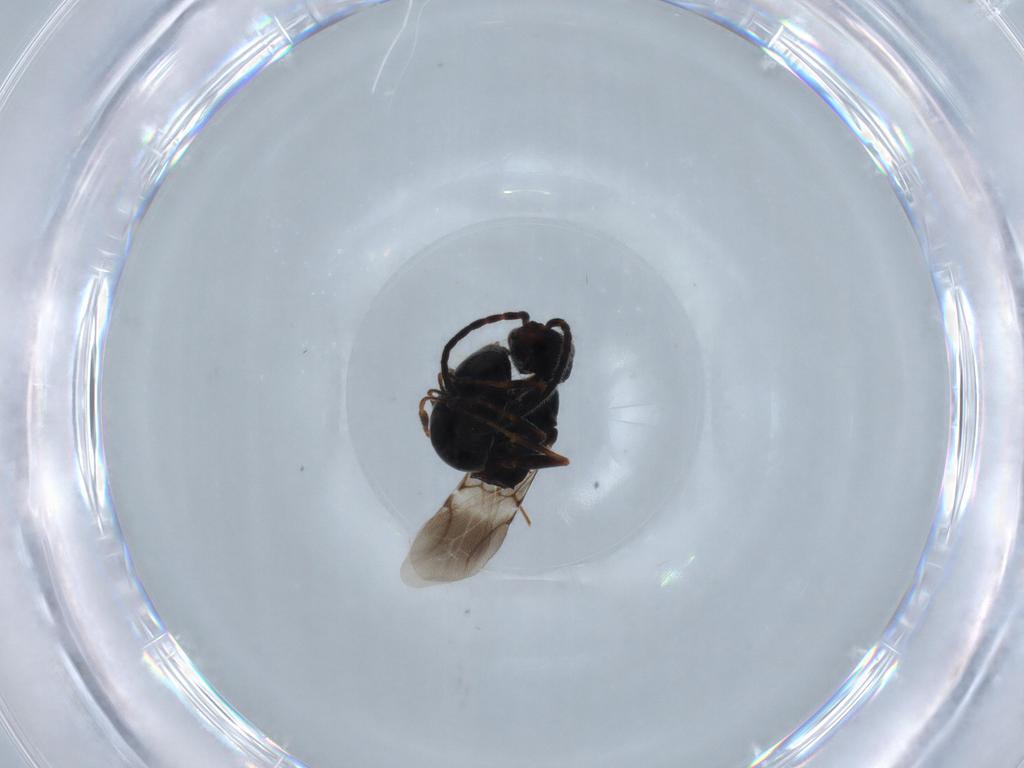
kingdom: Animalia
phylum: Arthropoda
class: Insecta
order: Hymenoptera
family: Bethylidae
